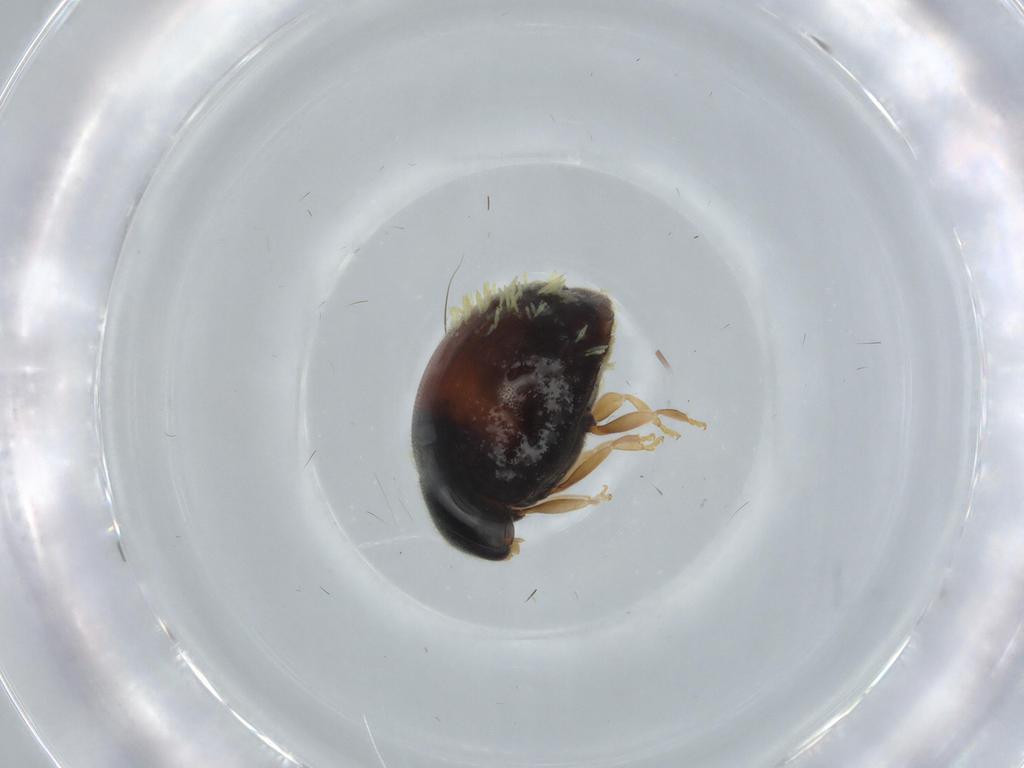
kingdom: Animalia
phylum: Arthropoda
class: Insecta
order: Coleoptera
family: Coccinellidae
